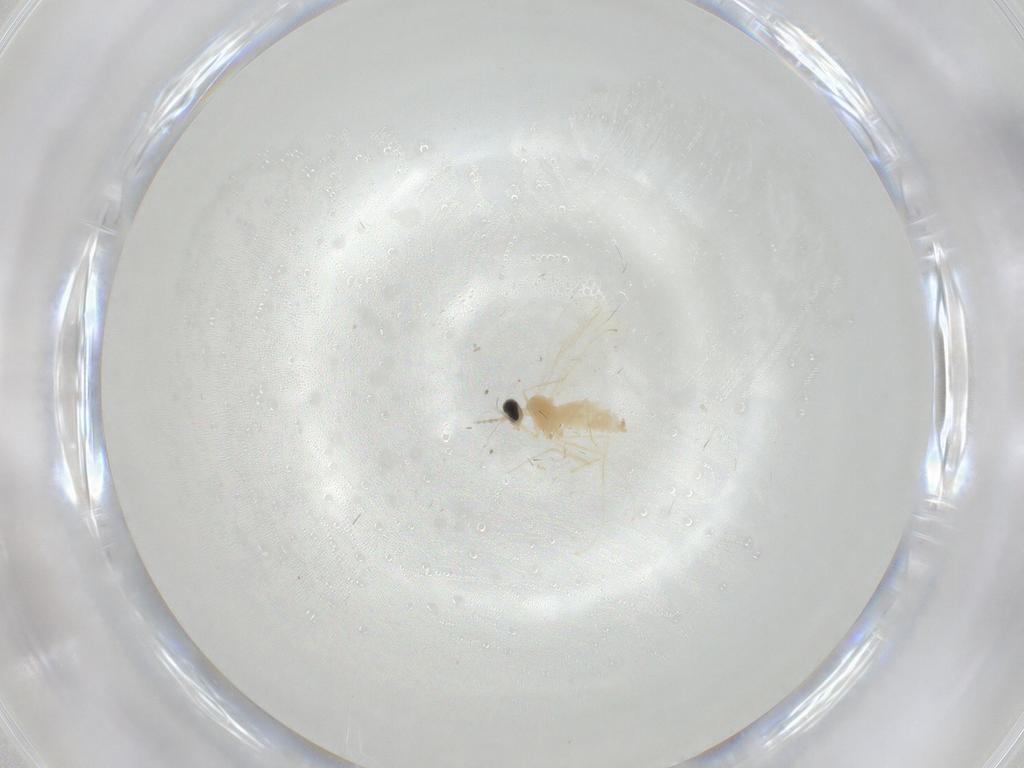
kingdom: Animalia
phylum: Arthropoda
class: Insecta
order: Diptera
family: Cecidomyiidae
